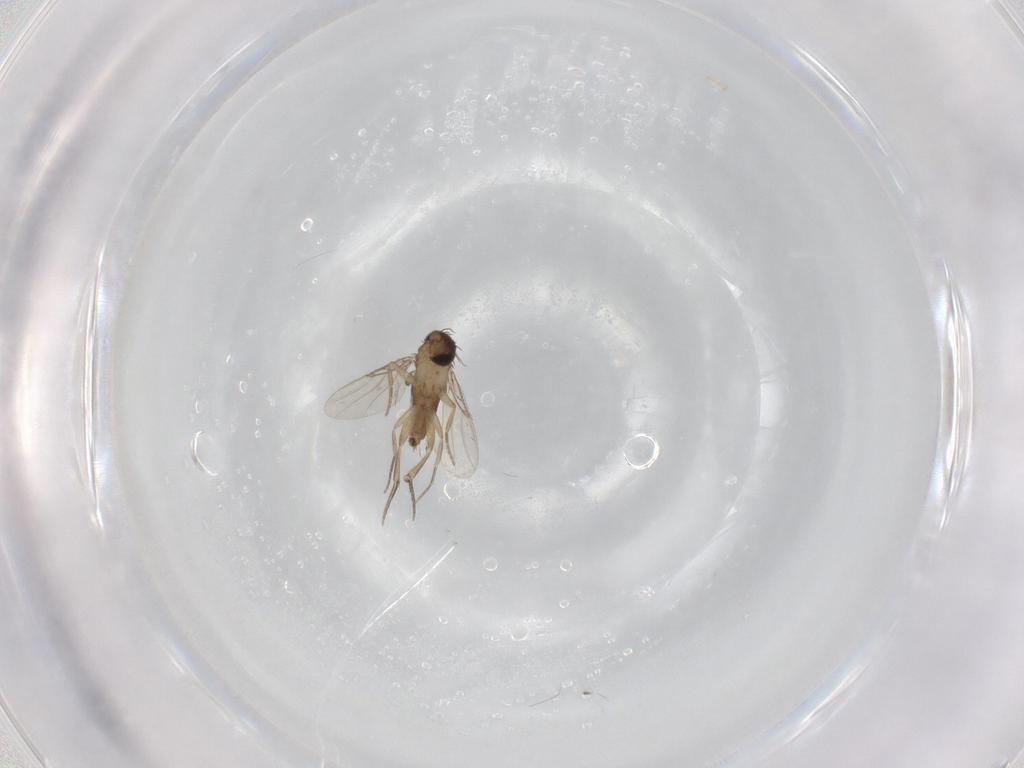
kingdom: Animalia
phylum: Arthropoda
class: Insecta
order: Diptera
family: Phoridae
